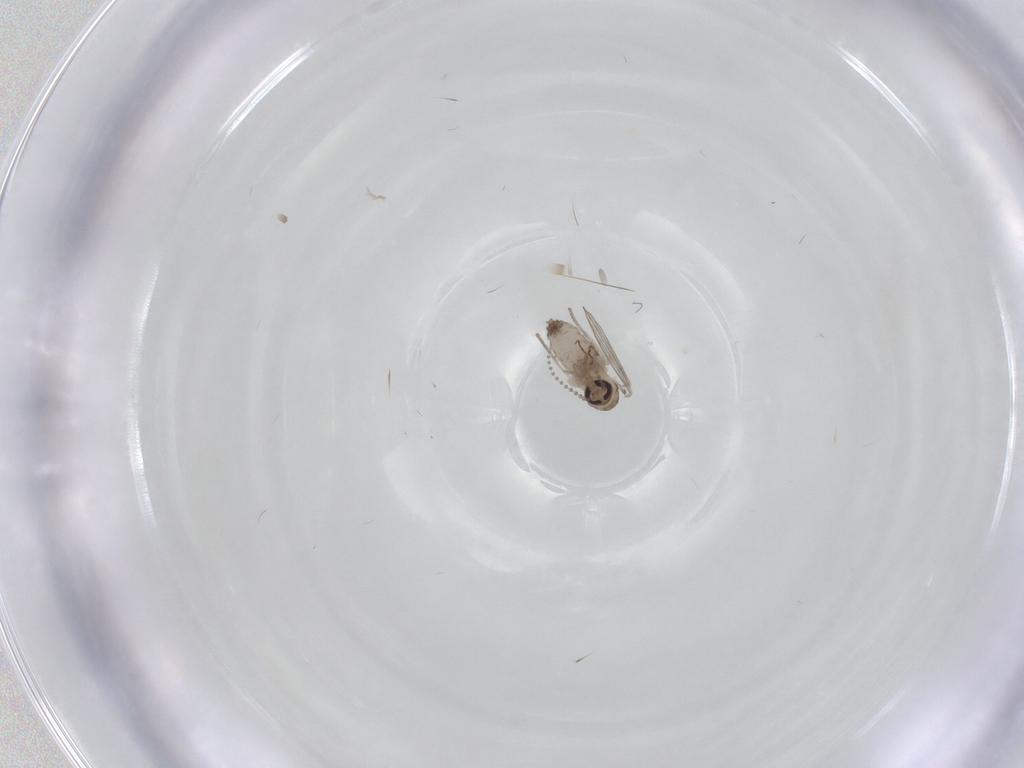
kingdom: Animalia
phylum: Arthropoda
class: Insecta
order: Diptera
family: Psychodidae
